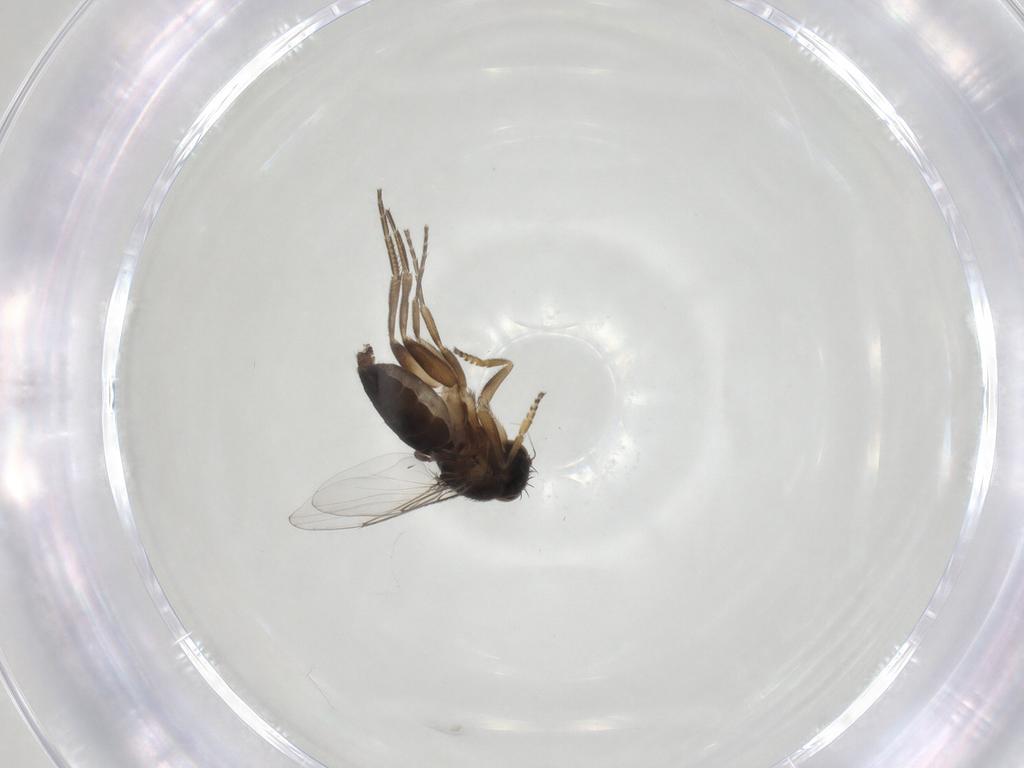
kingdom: Animalia
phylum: Arthropoda
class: Insecta
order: Diptera
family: Phoridae
